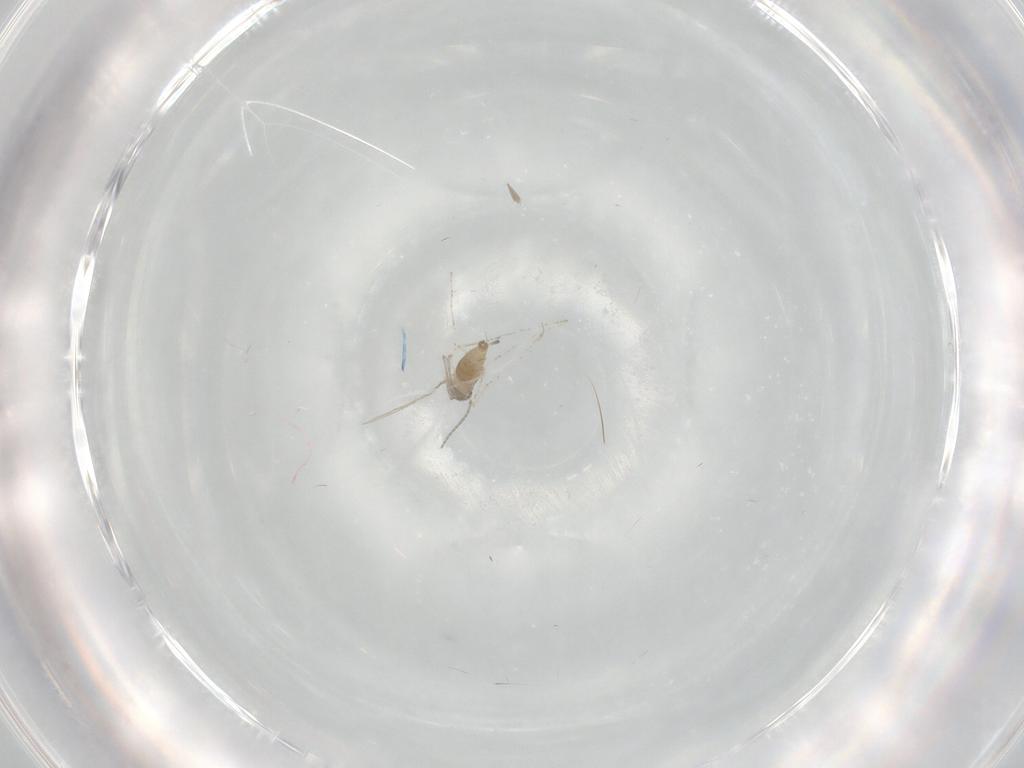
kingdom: Animalia
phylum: Arthropoda
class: Insecta
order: Diptera
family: Cecidomyiidae
